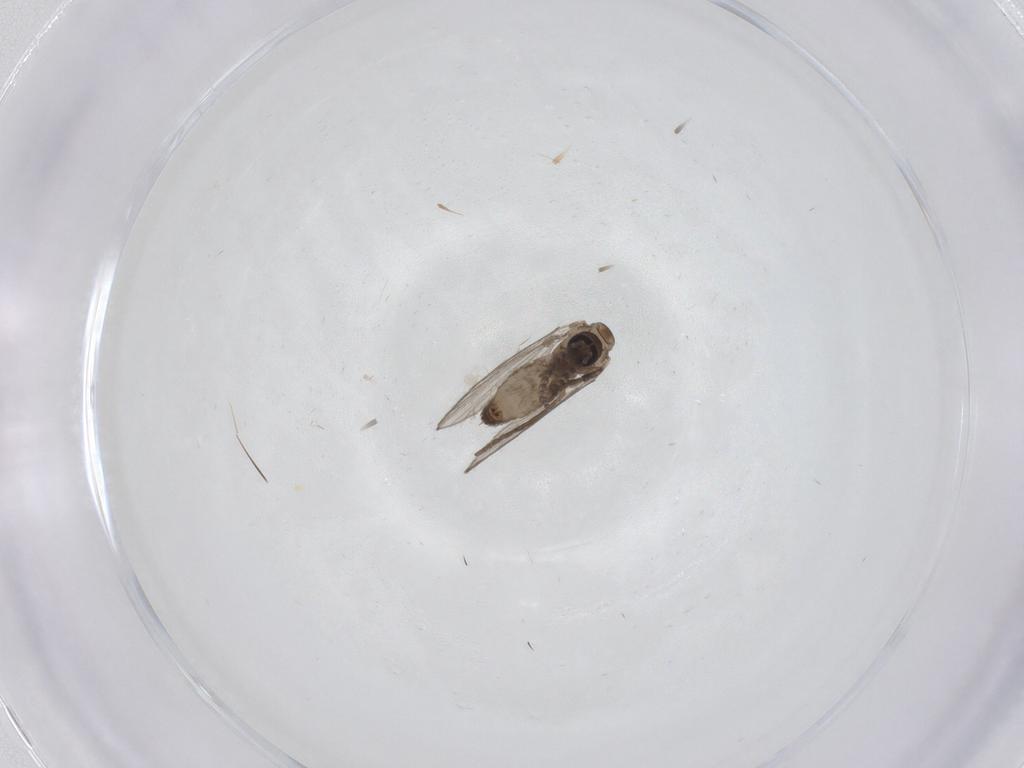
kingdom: Animalia
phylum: Arthropoda
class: Insecta
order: Diptera
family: Psychodidae
